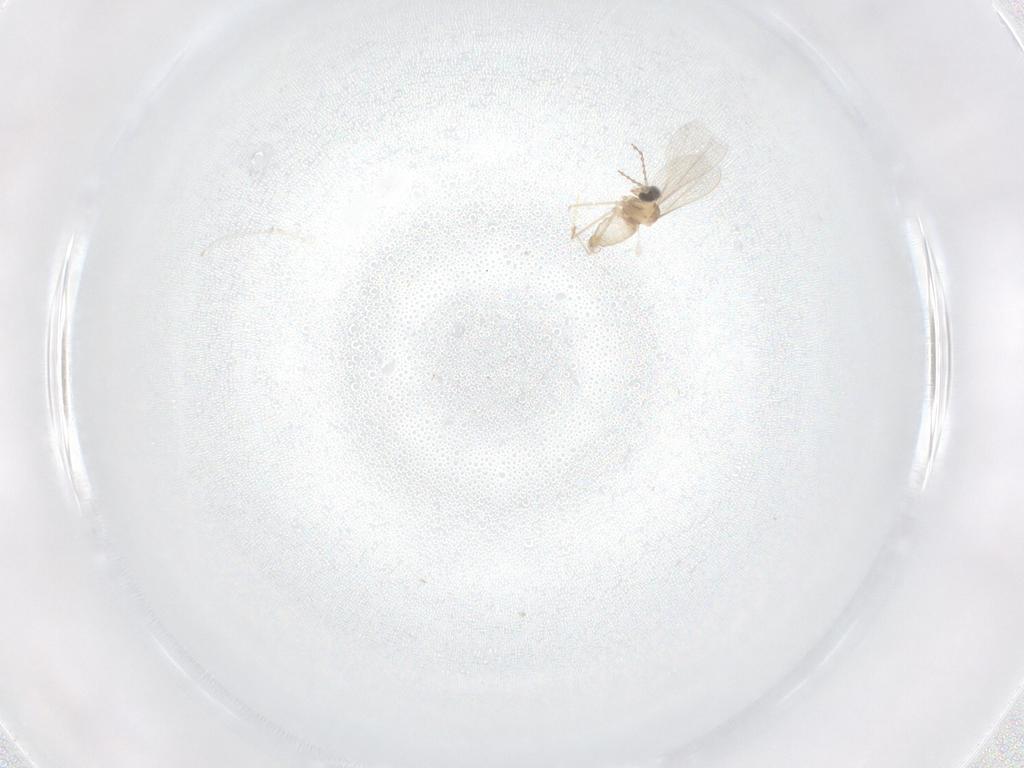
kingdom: Animalia
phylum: Arthropoda
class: Insecta
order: Diptera
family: Cecidomyiidae
